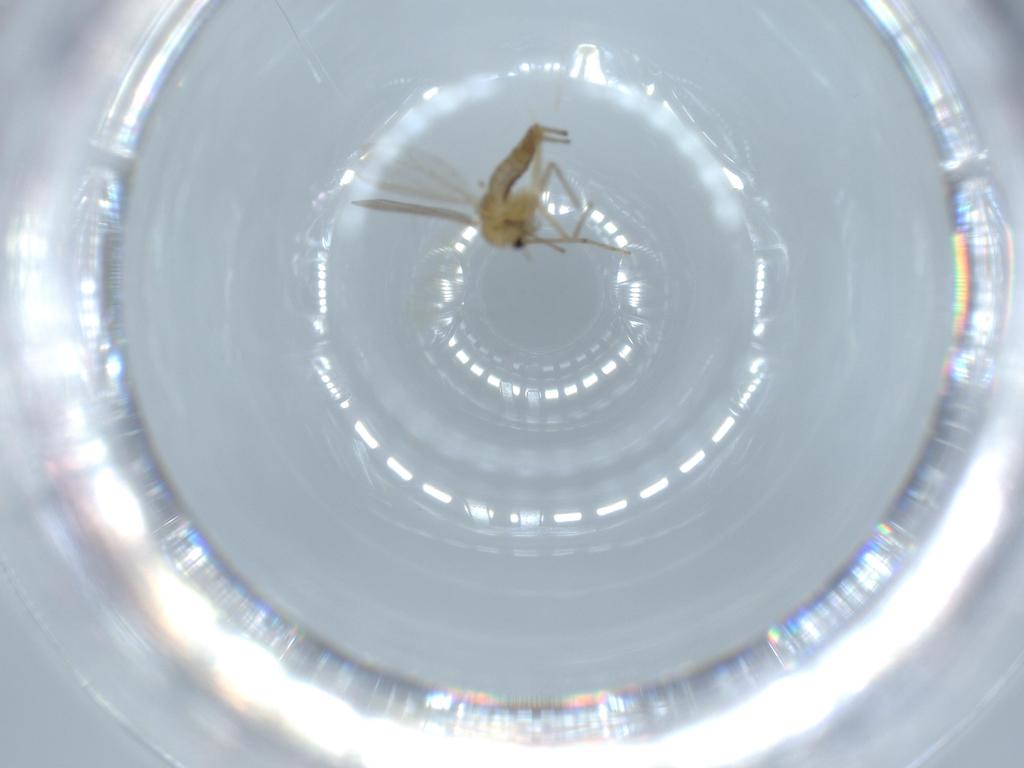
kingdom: Animalia
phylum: Arthropoda
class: Insecta
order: Diptera
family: Chironomidae
